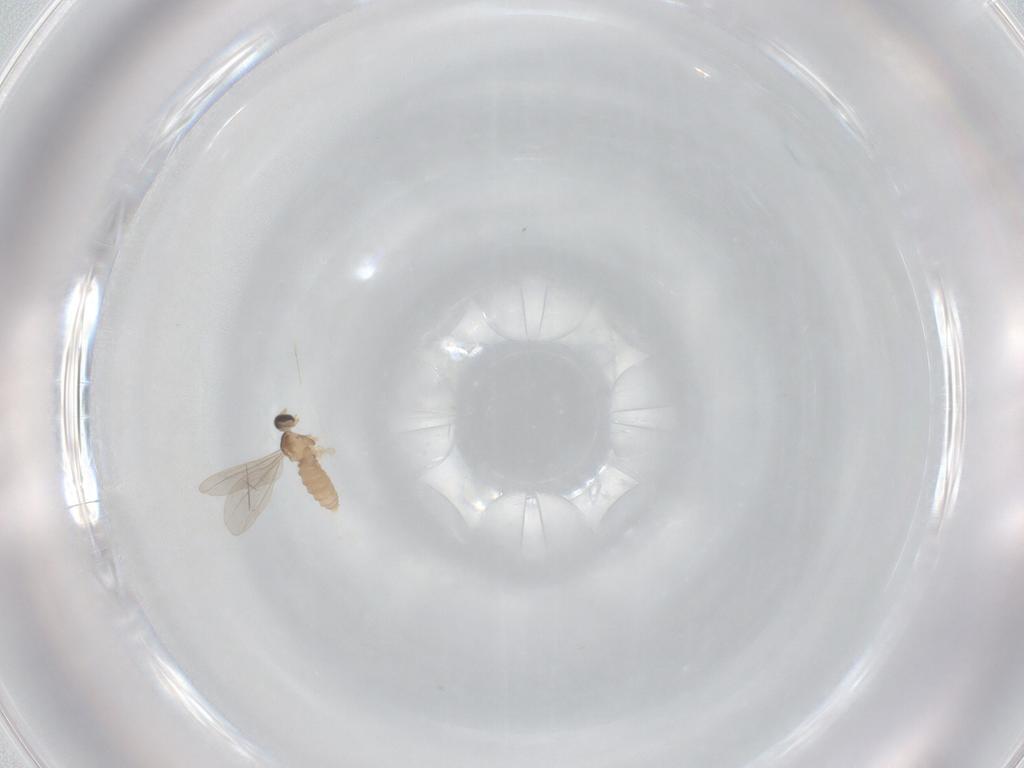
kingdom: Animalia
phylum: Arthropoda
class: Insecta
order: Diptera
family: Cecidomyiidae
